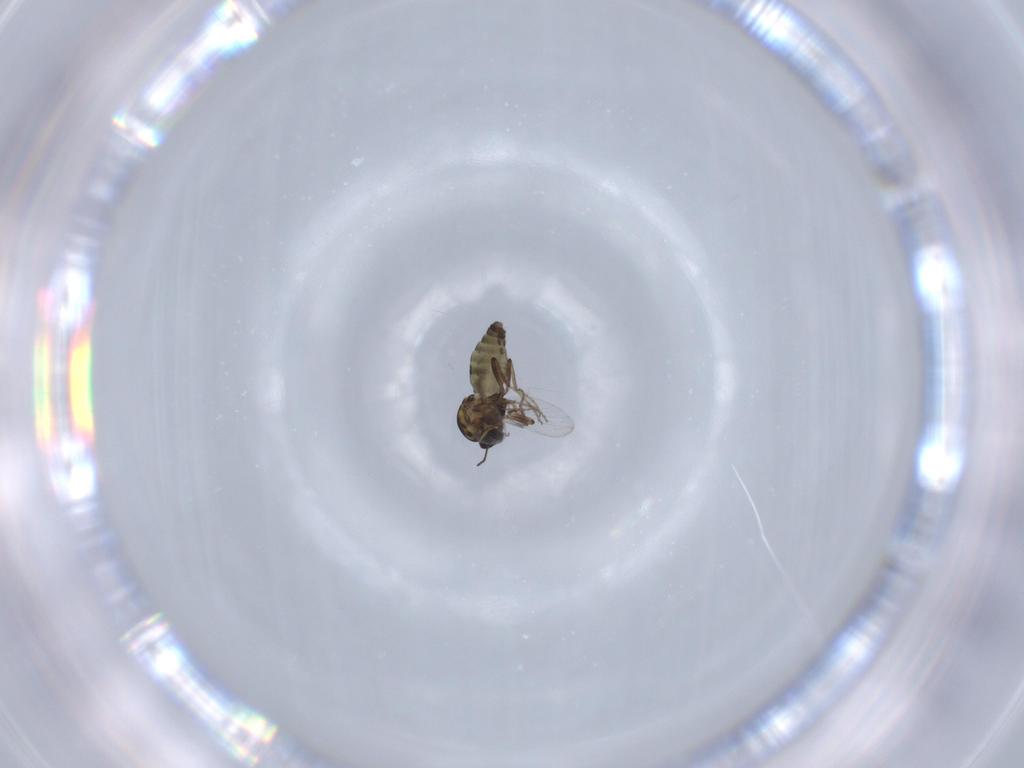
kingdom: Animalia
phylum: Arthropoda
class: Insecta
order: Diptera
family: Ceratopogonidae
